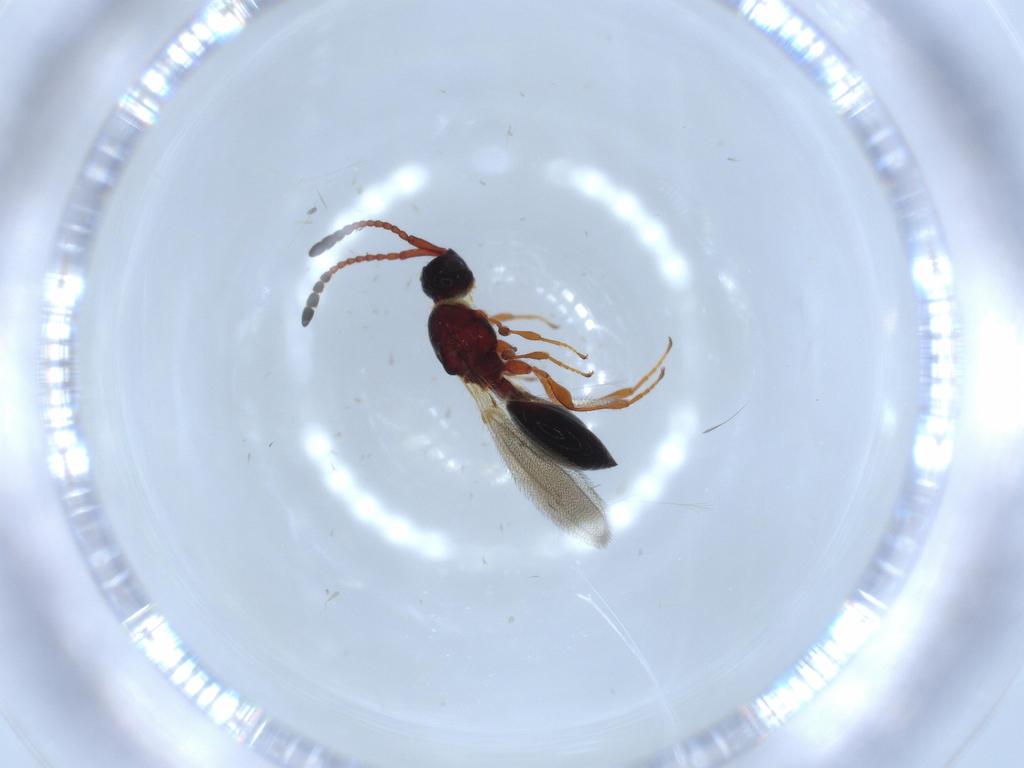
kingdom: Animalia
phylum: Arthropoda
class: Insecta
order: Hymenoptera
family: Diapriidae
